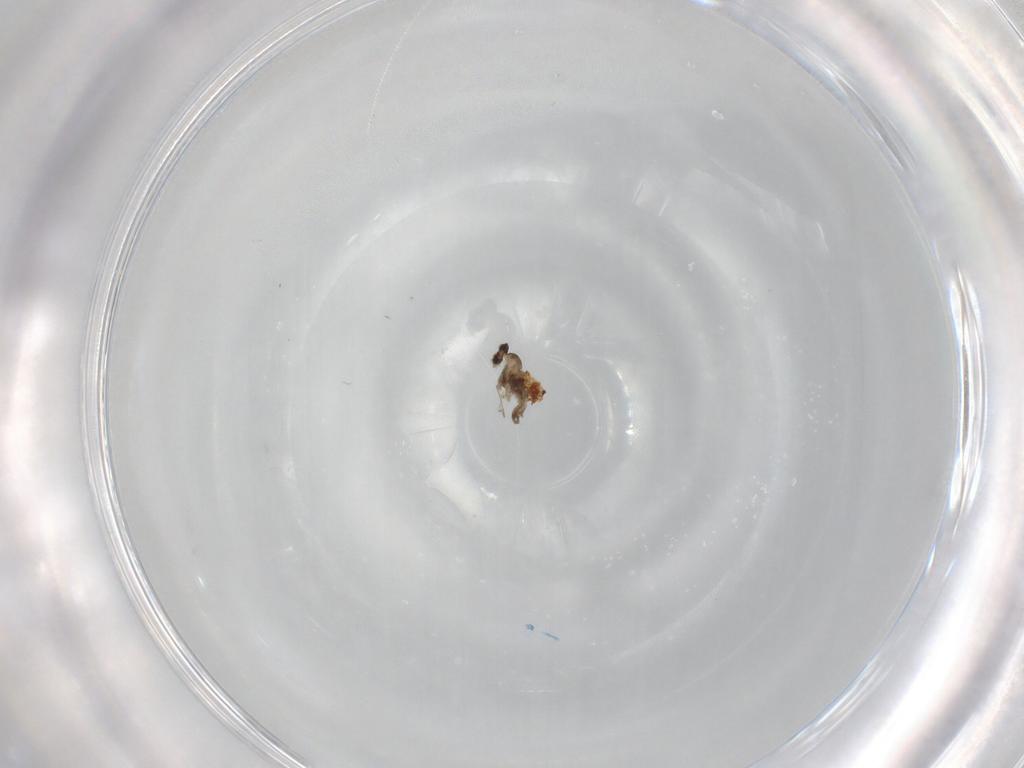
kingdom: Animalia
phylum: Arthropoda
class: Insecta
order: Diptera
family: Cecidomyiidae
